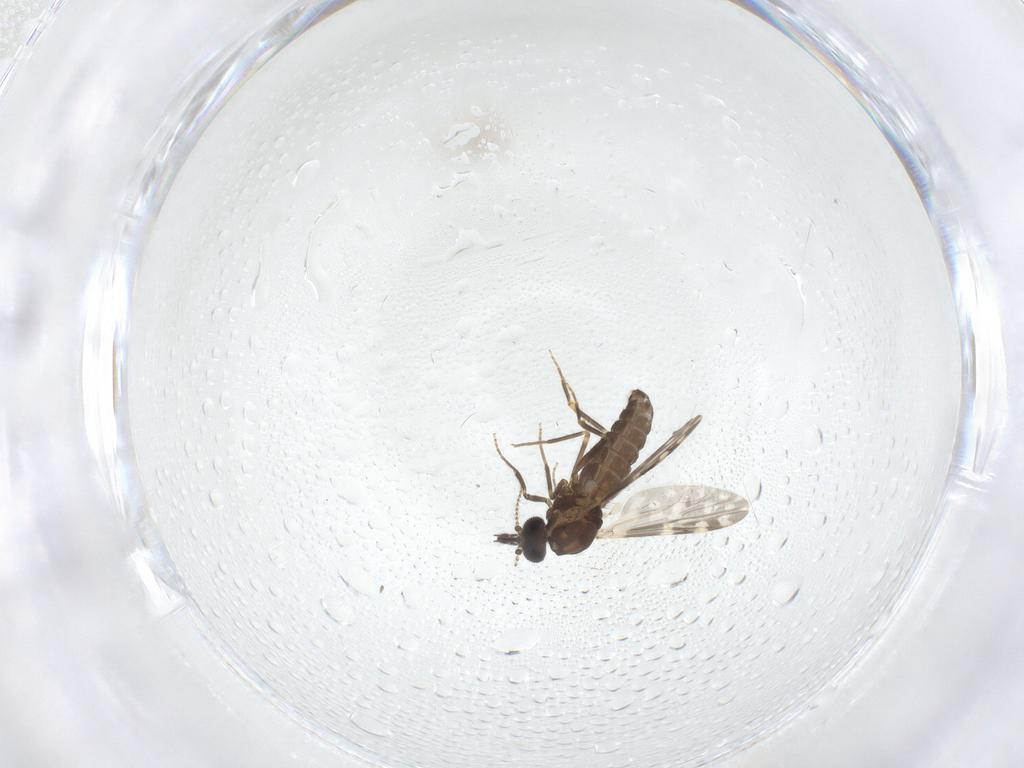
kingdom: Animalia
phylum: Arthropoda
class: Insecta
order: Diptera
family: Ceratopogonidae
